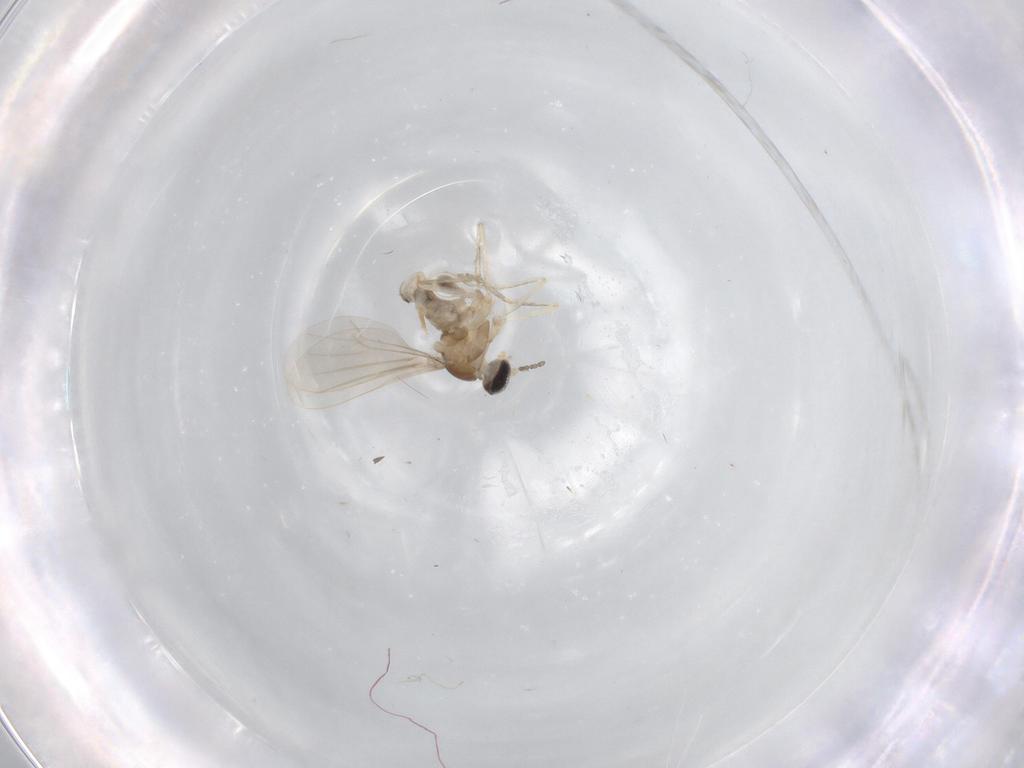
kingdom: Animalia
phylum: Arthropoda
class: Insecta
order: Diptera
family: Cecidomyiidae
